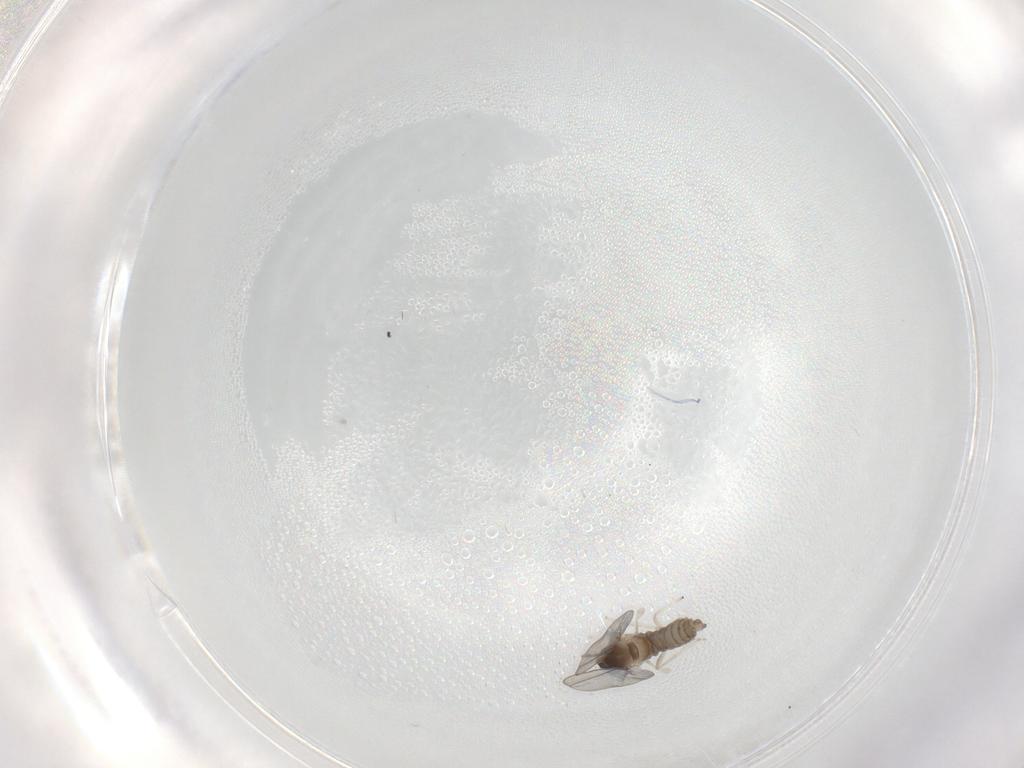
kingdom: Animalia
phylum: Arthropoda
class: Insecta
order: Diptera
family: Cecidomyiidae
